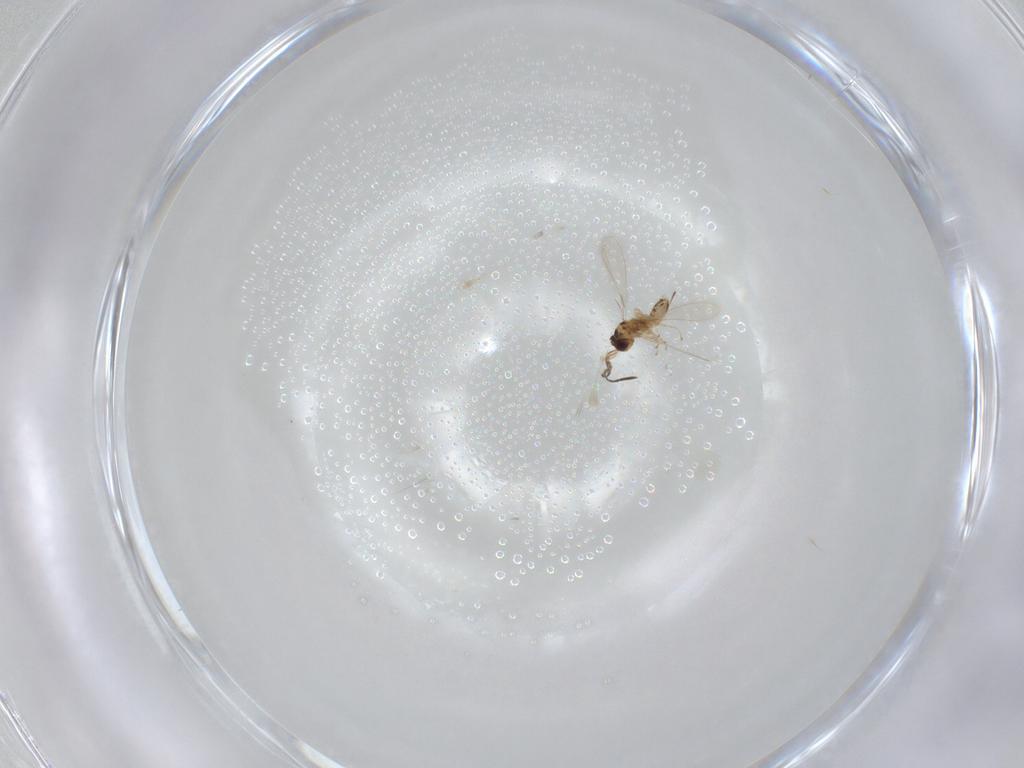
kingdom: Animalia
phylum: Arthropoda
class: Insecta
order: Hymenoptera
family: Mymaridae
